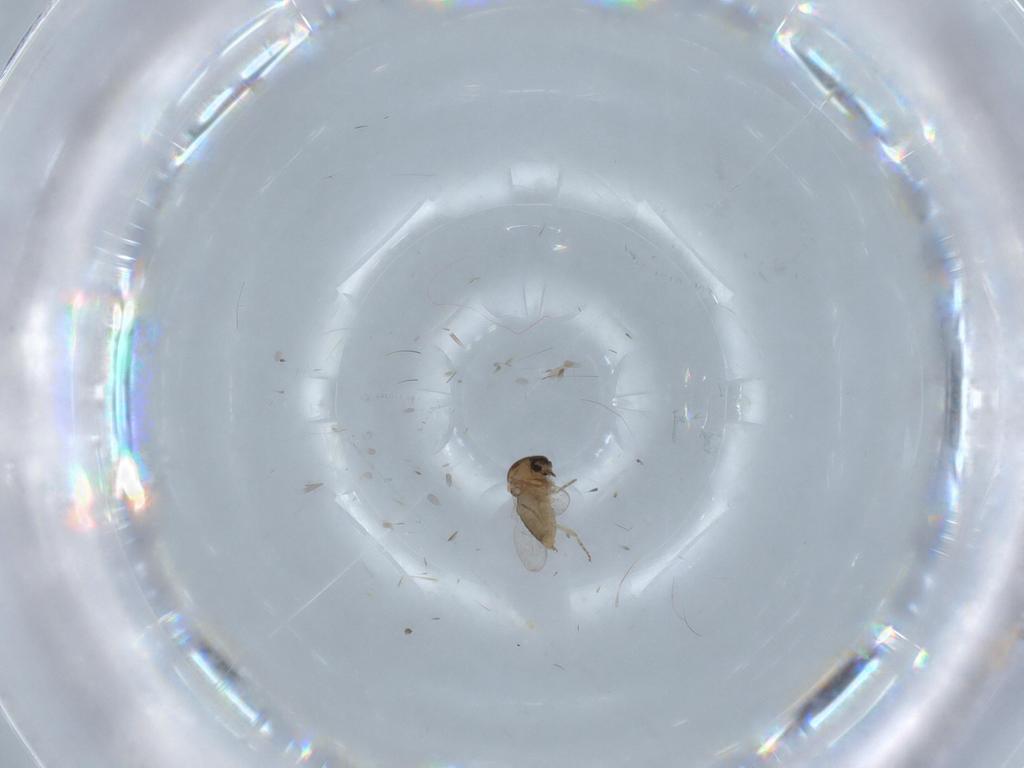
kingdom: Animalia
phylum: Arthropoda
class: Insecta
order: Diptera
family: Ceratopogonidae
